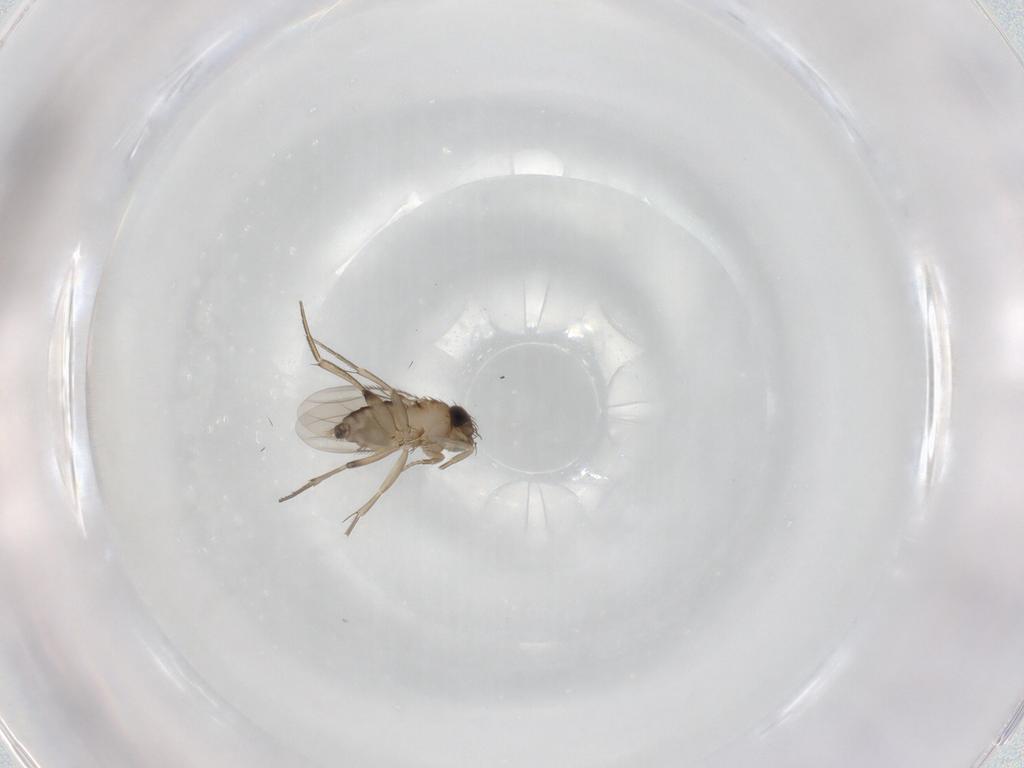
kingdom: Animalia
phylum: Arthropoda
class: Insecta
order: Diptera
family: Phoridae
